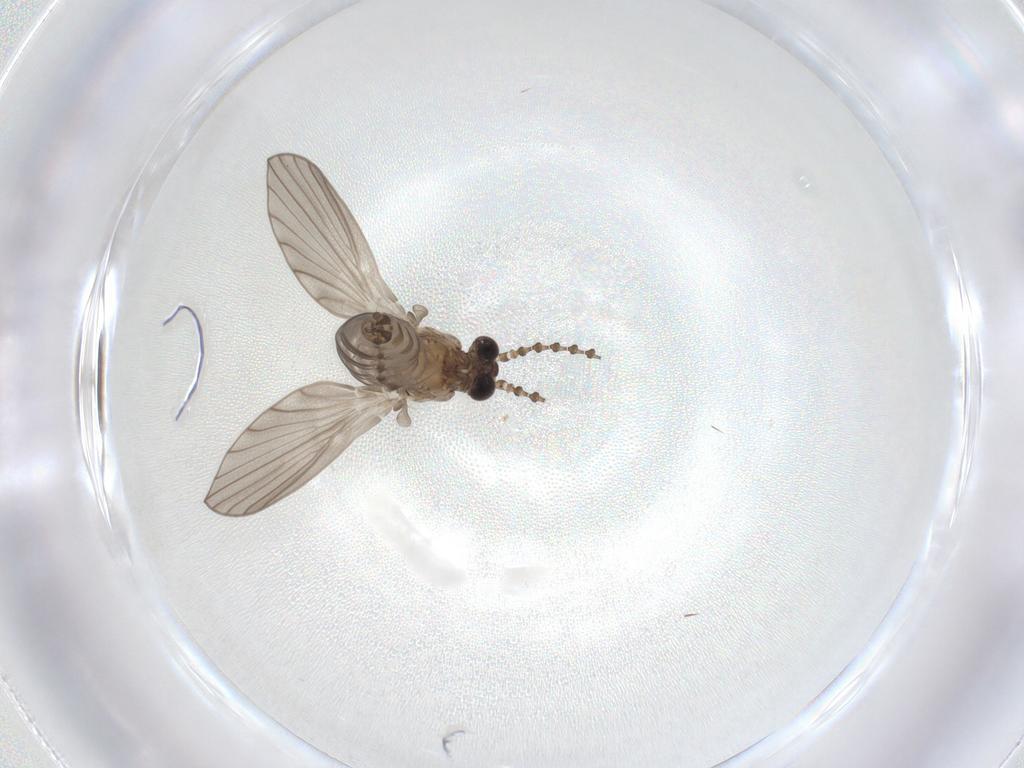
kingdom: Animalia
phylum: Arthropoda
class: Insecta
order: Diptera
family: Psychodidae
